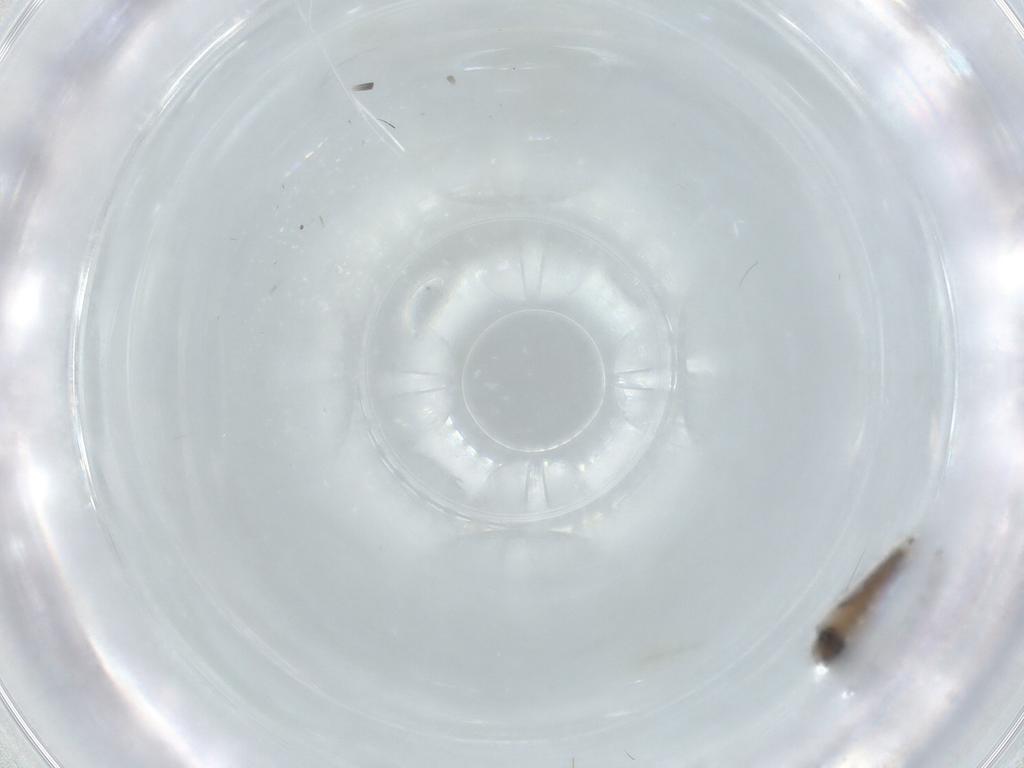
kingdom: Animalia
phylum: Arthropoda
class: Insecta
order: Diptera
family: Psychodidae
